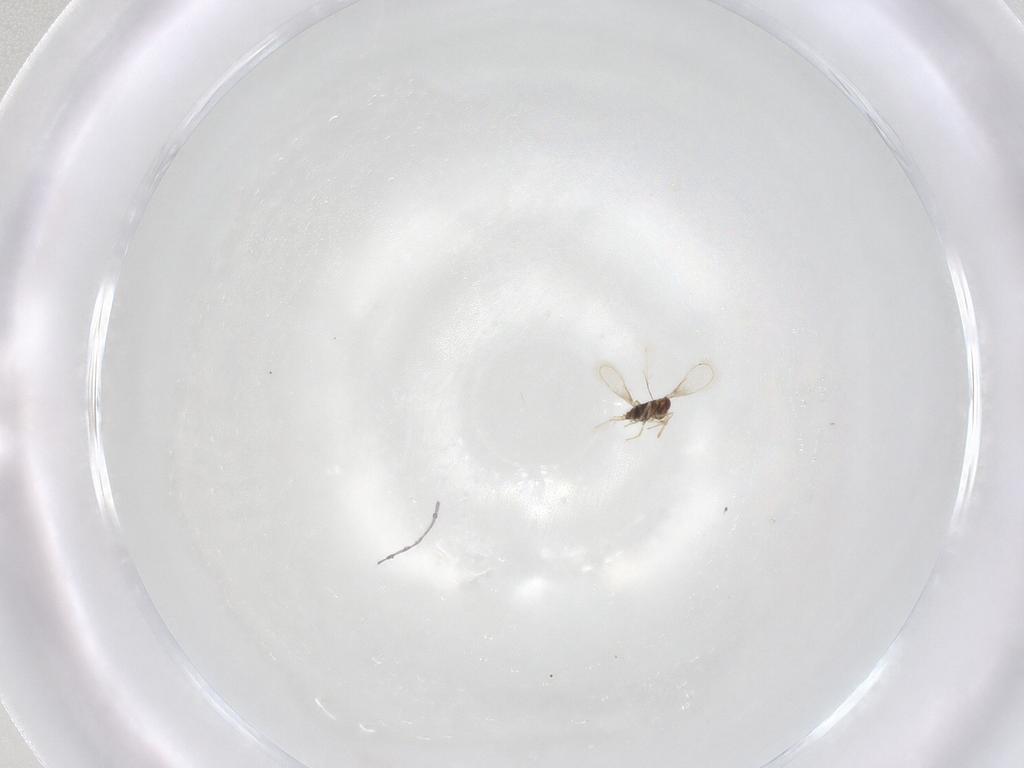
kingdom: Animalia
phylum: Arthropoda
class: Insecta
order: Hymenoptera
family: Aphelinidae
